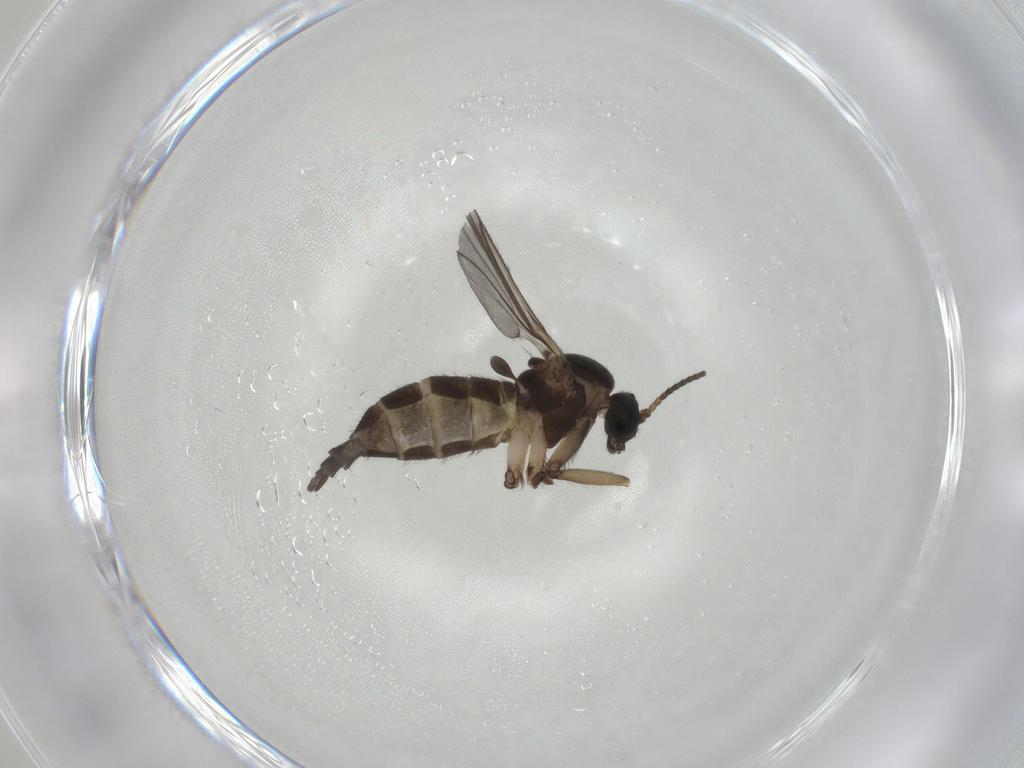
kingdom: Animalia
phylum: Arthropoda
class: Insecta
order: Diptera
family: Sciaridae
